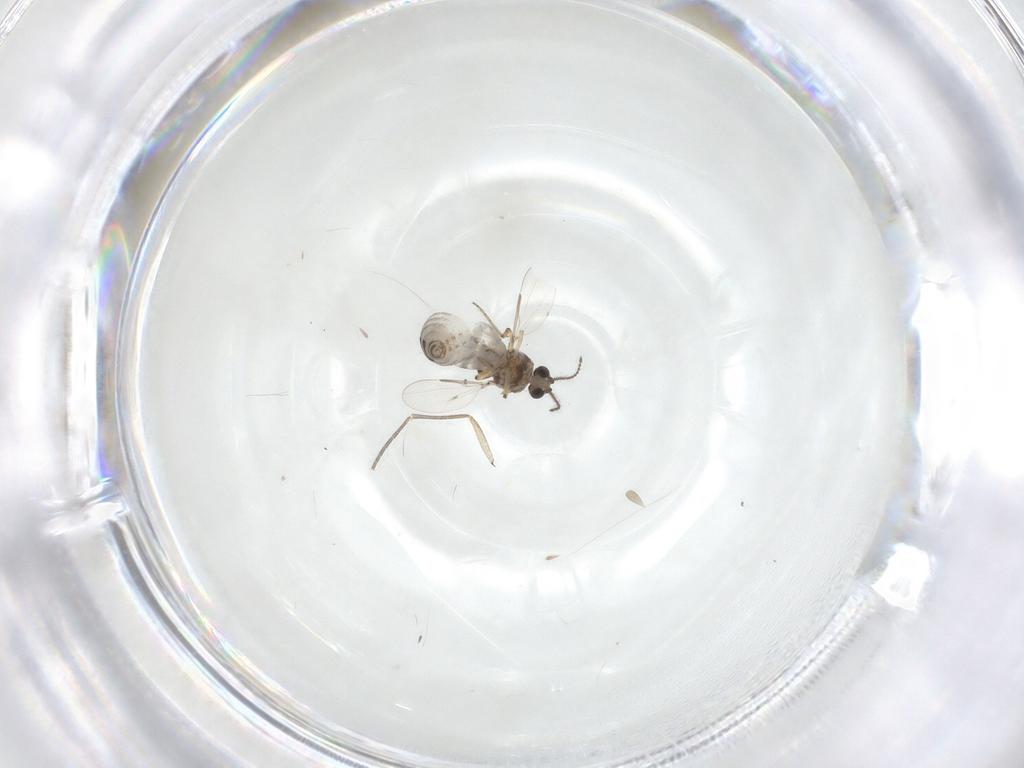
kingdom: Animalia
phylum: Arthropoda
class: Insecta
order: Diptera
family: Ceratopogonidae
